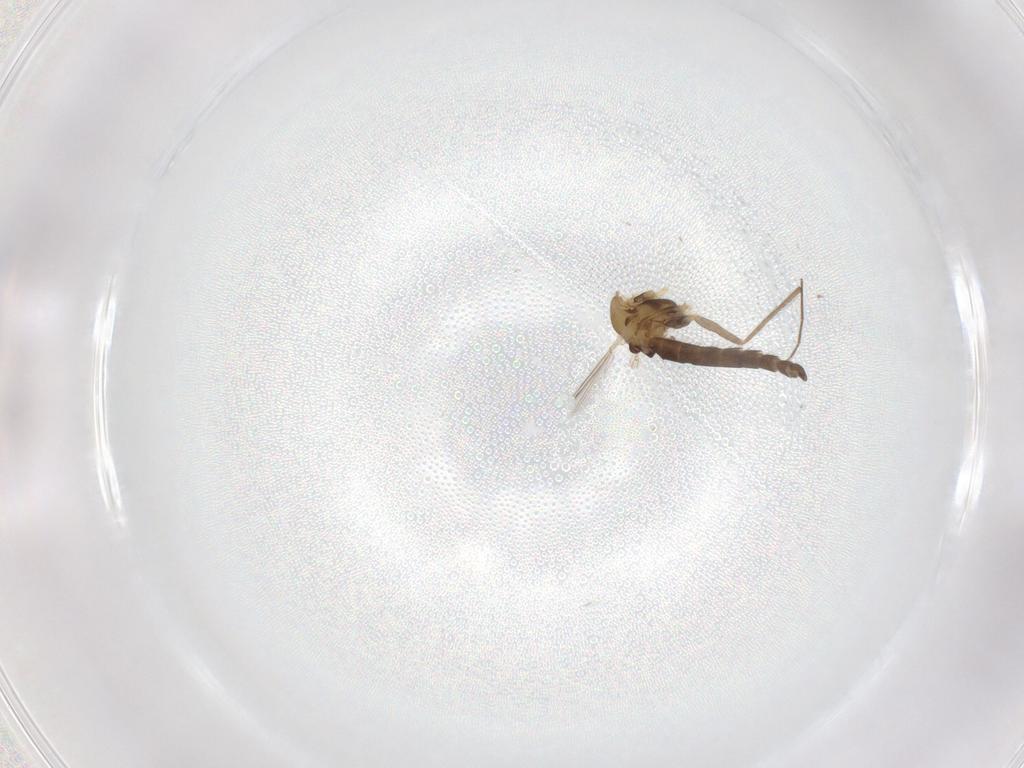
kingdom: Animalia
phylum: Arthropoda
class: Insecta
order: Diptera
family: Chironomidae
